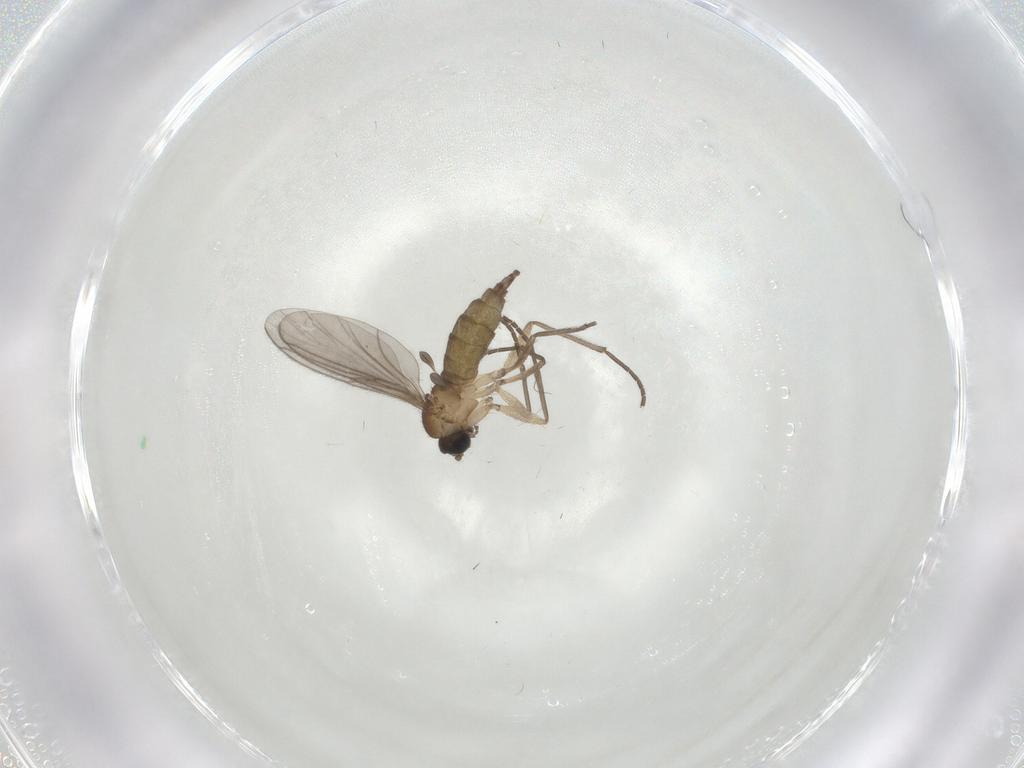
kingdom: Animalia
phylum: Arthropoda
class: Insecta
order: Diptera
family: Sciaridae
